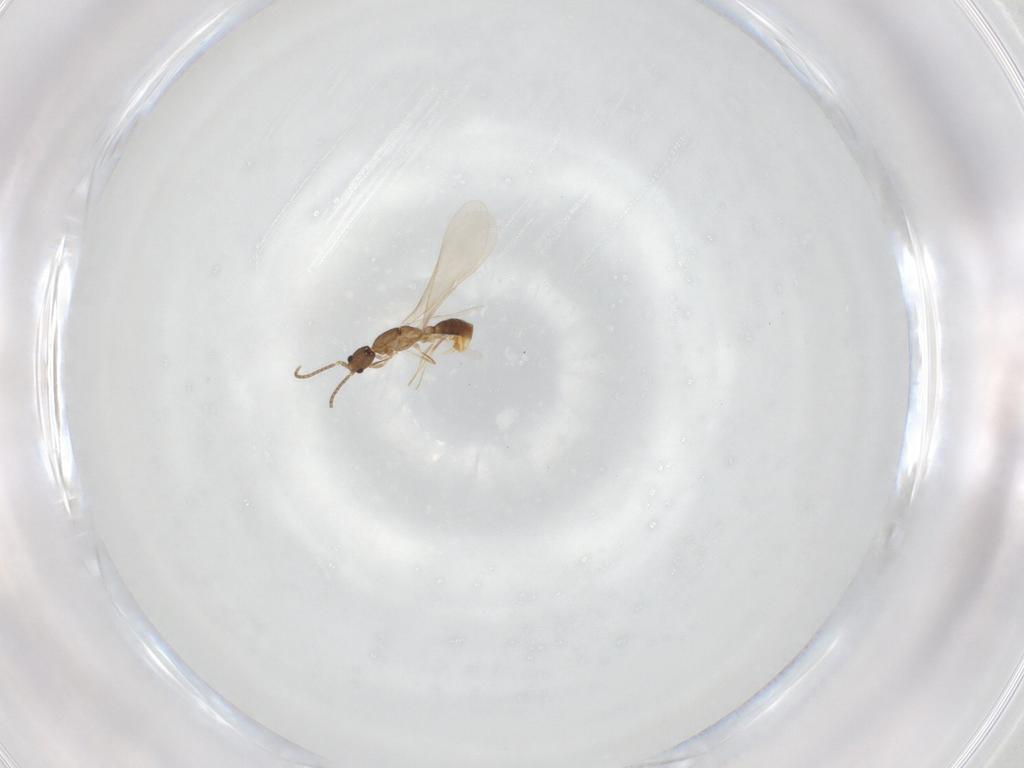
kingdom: Animalia
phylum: Arthropoda
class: Insecta
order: Hymenoptera
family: Formicidae
